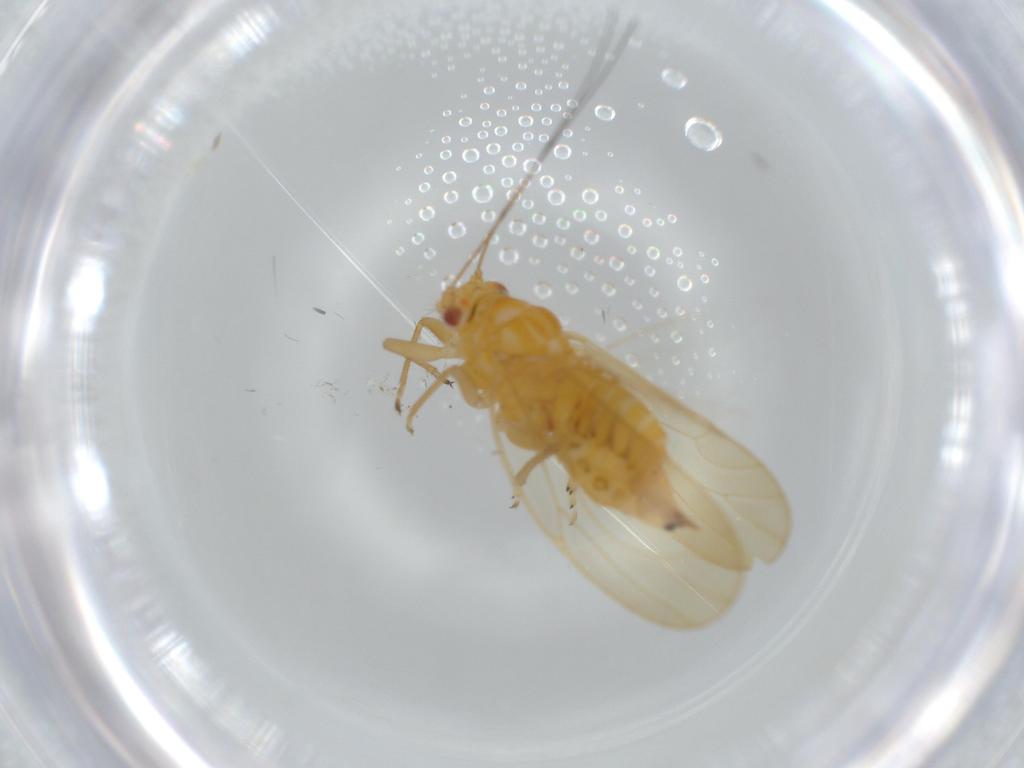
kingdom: Animalia
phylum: Arthropoda
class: Insecta
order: Hemiptera
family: Psyllidae
